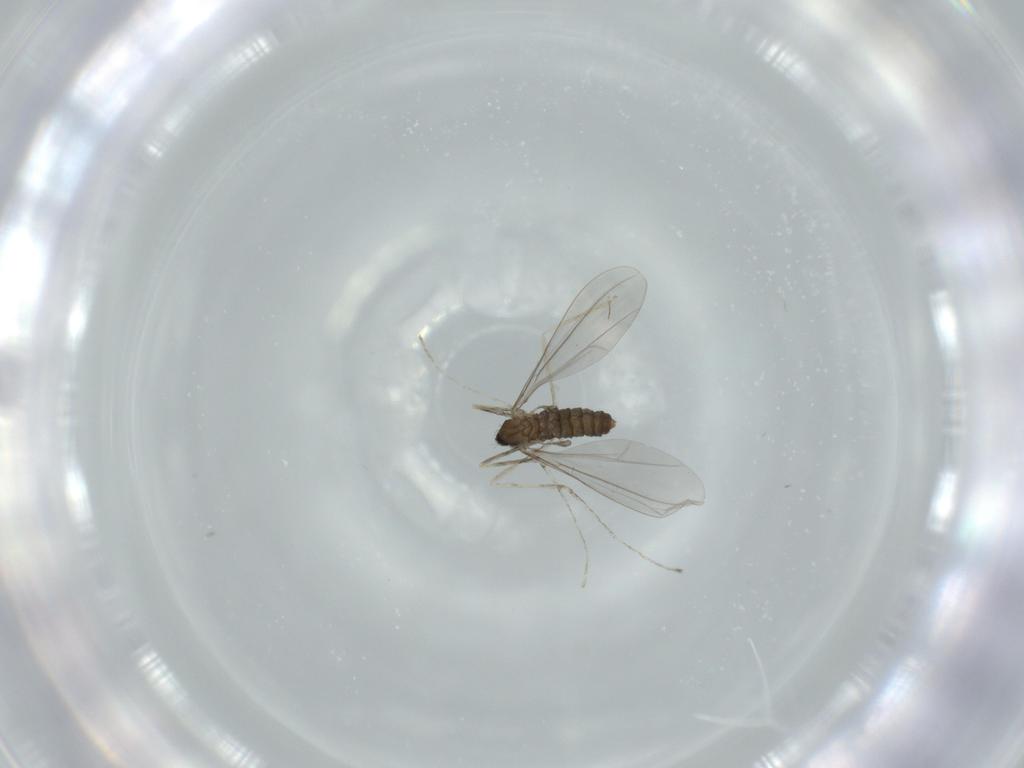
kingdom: Animalia
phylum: Arthropoda
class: Insecta
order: Diptera
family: Cecidomyiidae
